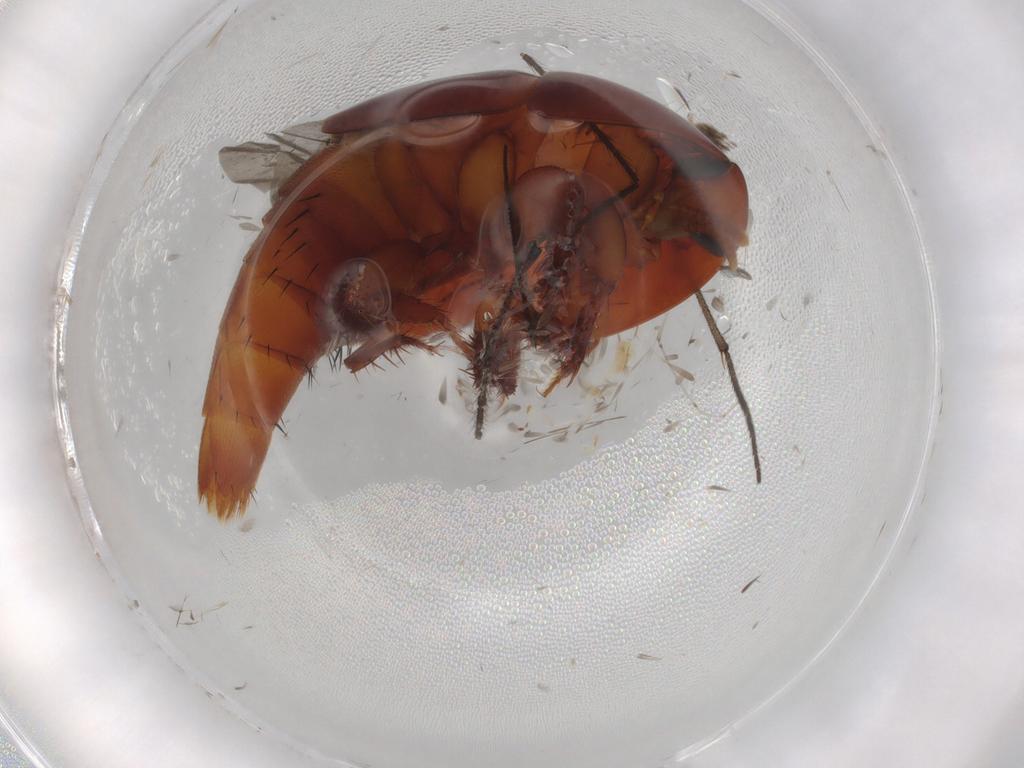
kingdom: Animalia
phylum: Arthropoda
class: Insecta
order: Coleoptera
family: Staphylinidae
